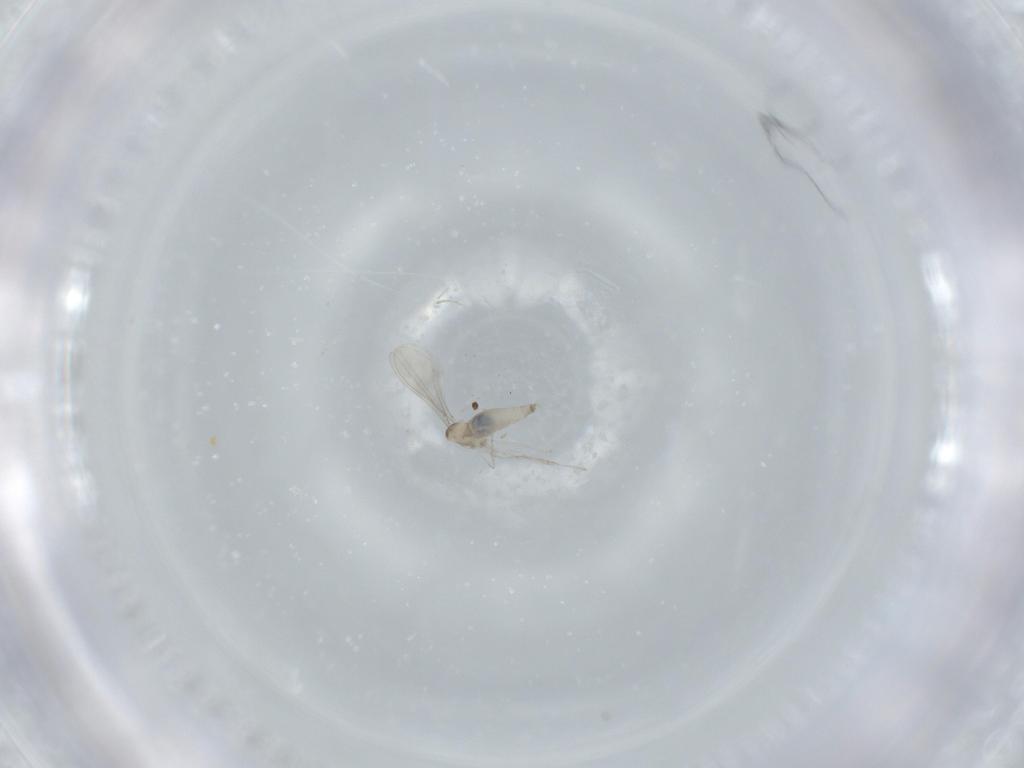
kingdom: Animalia
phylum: Arthropoda
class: Insecta
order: Diptera
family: Cecidomyiidae
